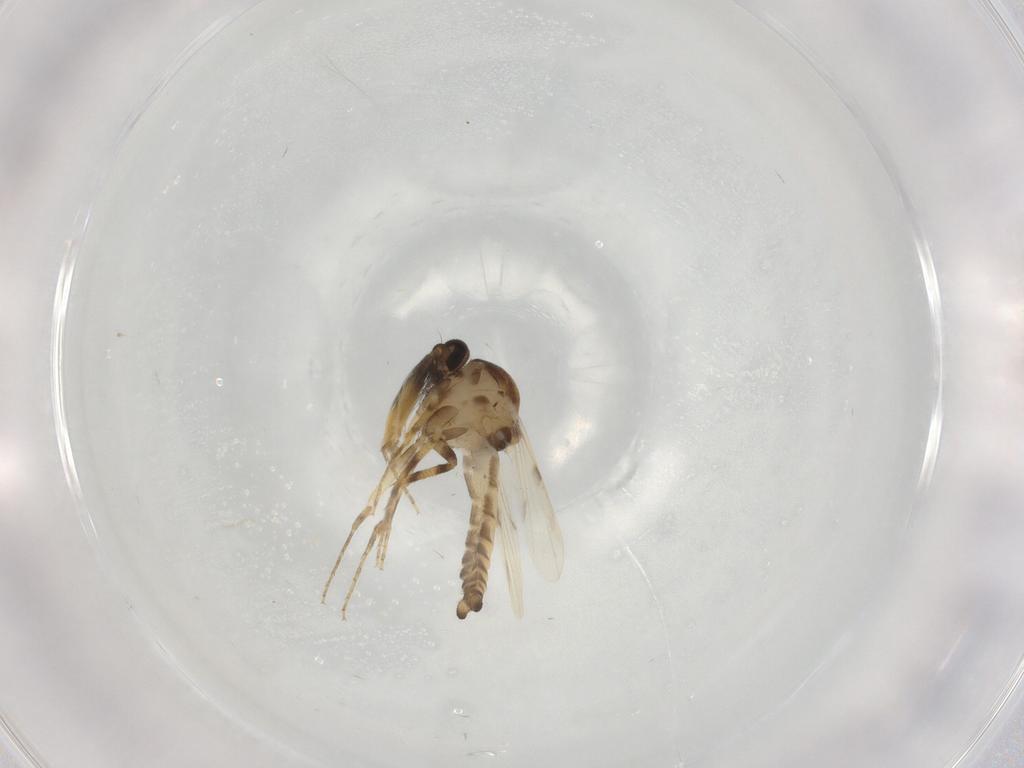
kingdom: Animalia
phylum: Arthropoda
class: Insecta
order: Diptera
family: Ceratopogonidae
